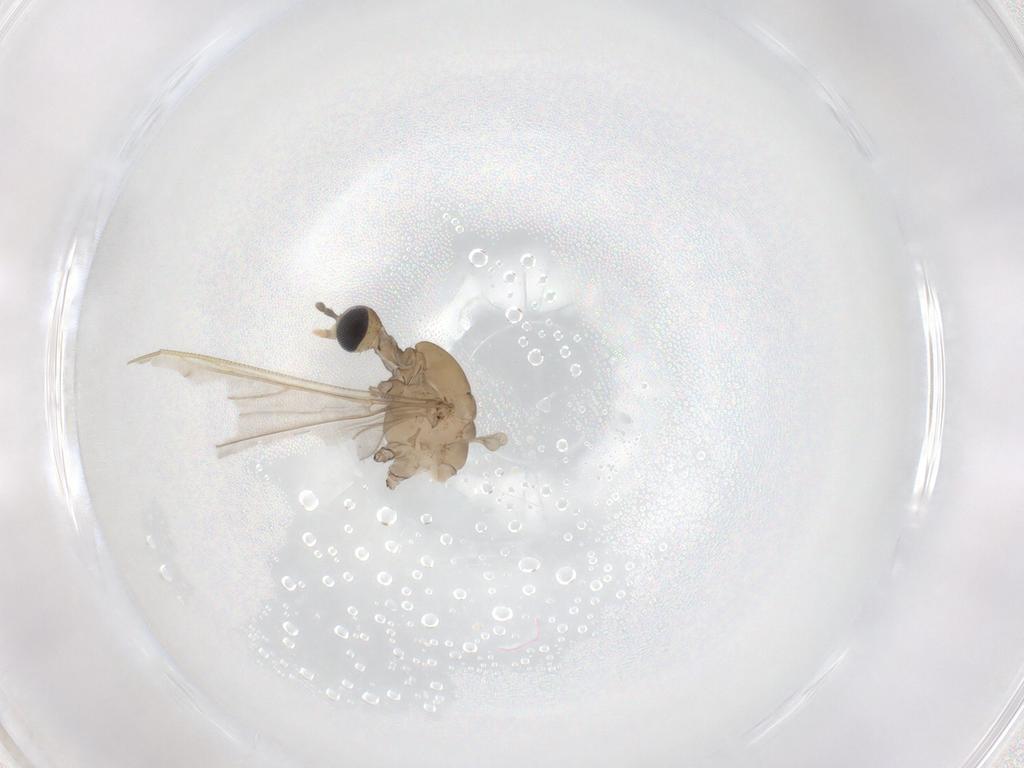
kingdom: Animalia
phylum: Arthropoda
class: Insecta
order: Diptera
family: Limoniidae
